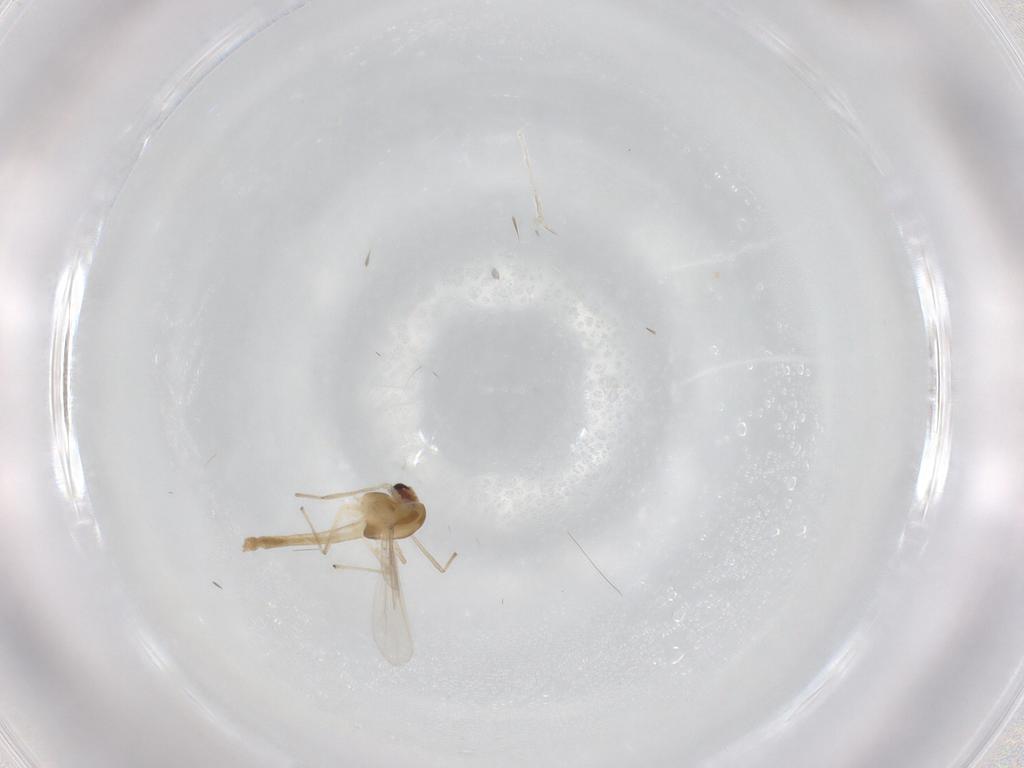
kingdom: Animalia
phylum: Arthropoda
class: Insecta
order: Diptera
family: Chironomidae
